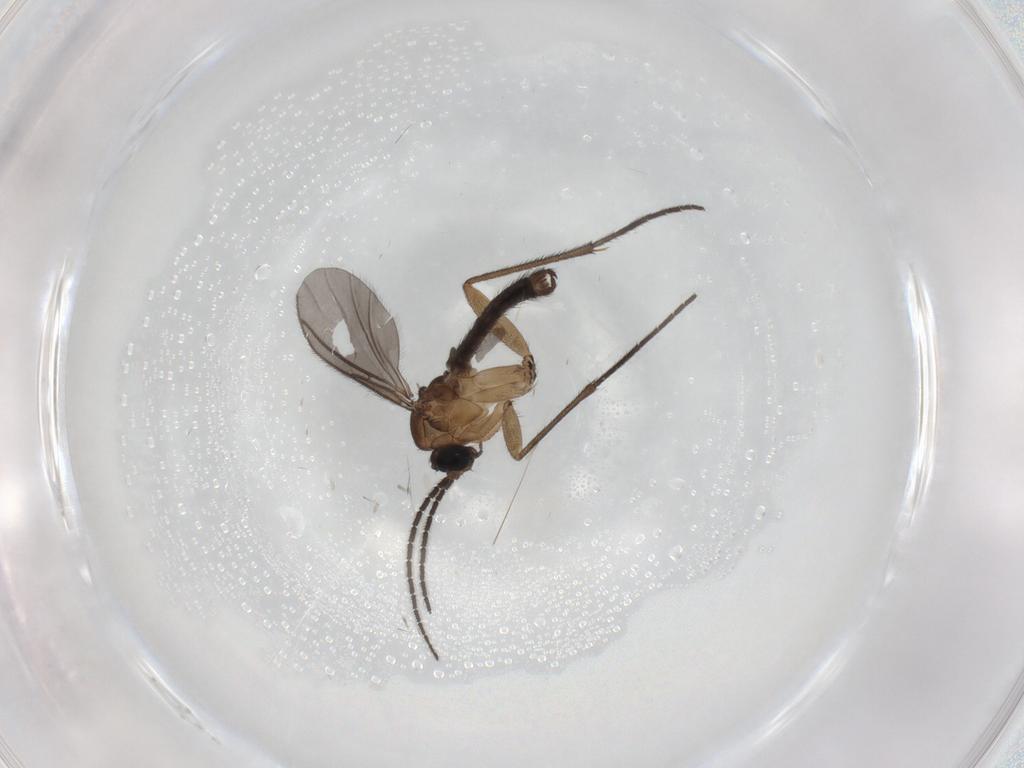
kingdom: Animalia
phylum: Arthropoda
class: Insecta
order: Diptera
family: Sciaridae
